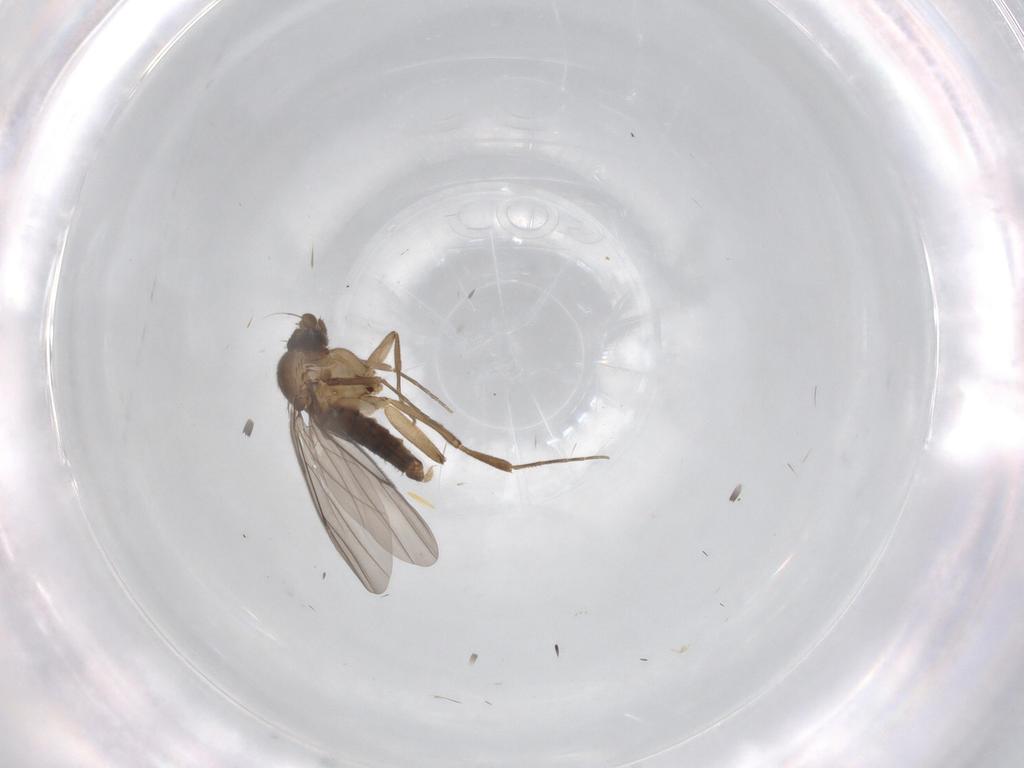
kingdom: Animalia
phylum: Arthropoda
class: Insecta
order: Diptera
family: Phoridae
